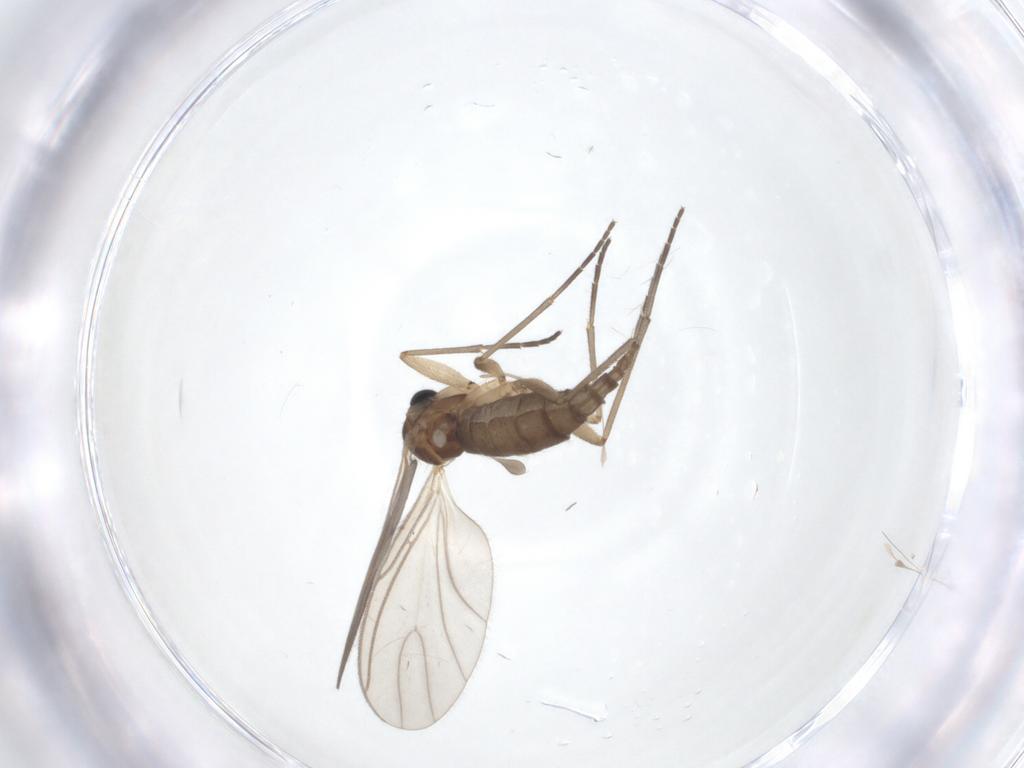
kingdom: Animalia
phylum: Arthropoda
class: Insecta
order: Diptera
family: Sciaridae
